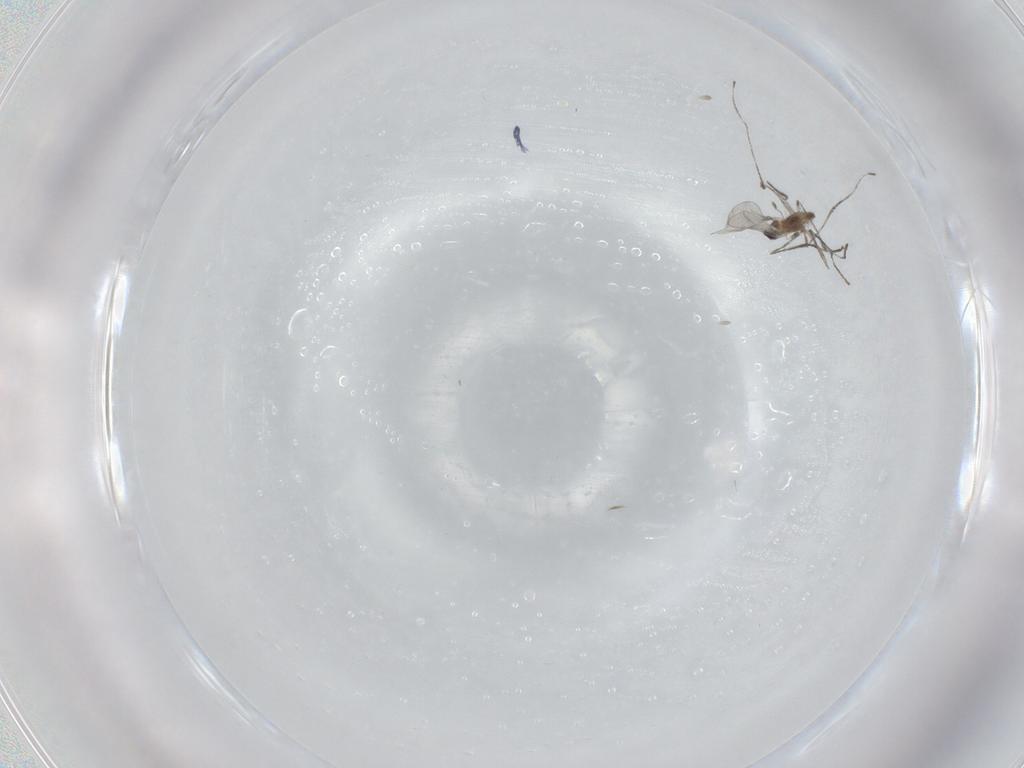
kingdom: Animalia
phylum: Arthropoda
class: Insecta
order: Diptera
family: Cecidomyiidae
